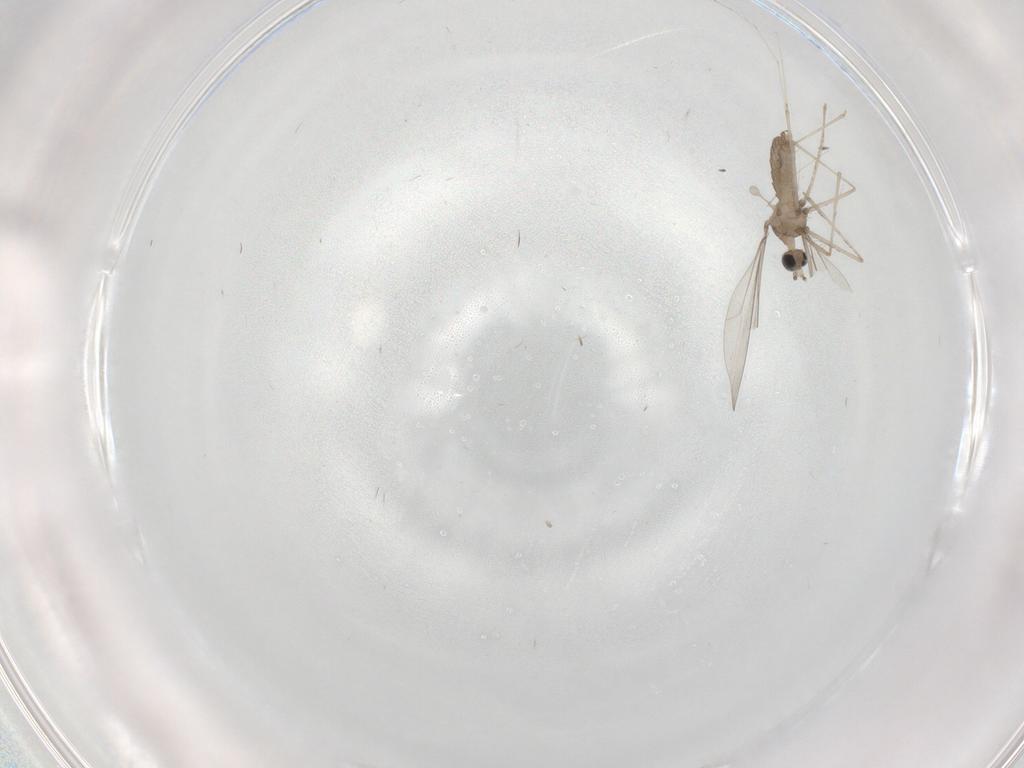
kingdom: Animalia
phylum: Arthropoda
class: Insecta
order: Diptera
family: Cecidomyiidae
